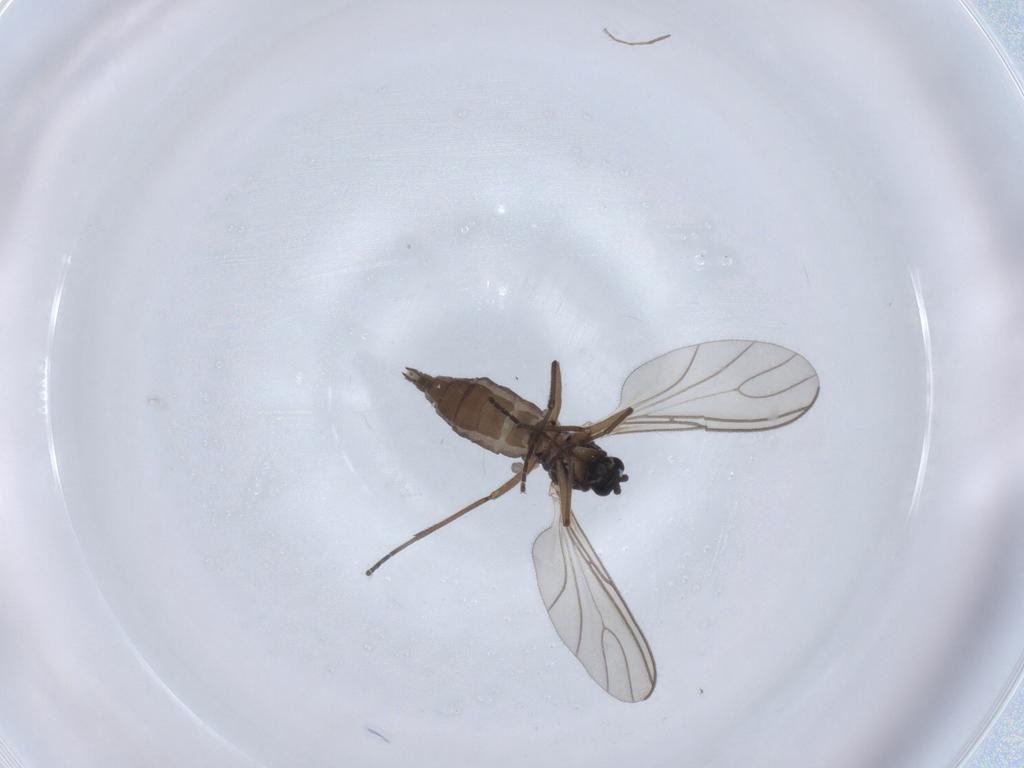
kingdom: Animalia
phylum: Arthropoda
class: Insecta
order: Diptera
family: Sciaridae
